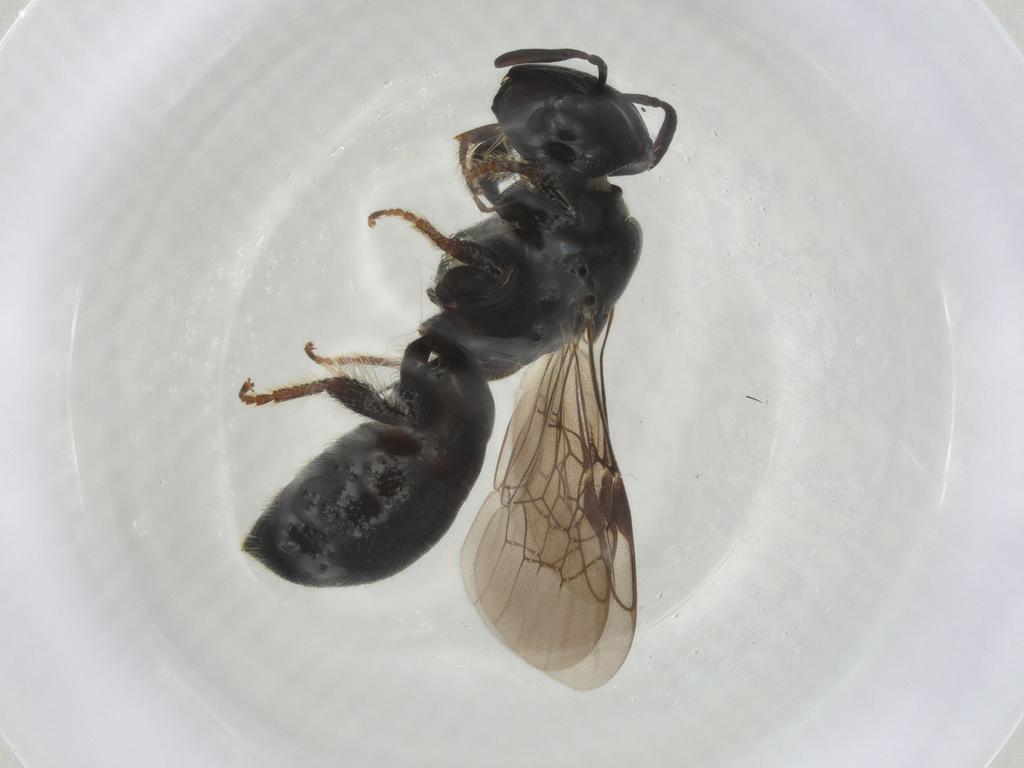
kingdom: Animalia
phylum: Arthropoda
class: Insecta
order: Hymenoptera
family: Apidae
